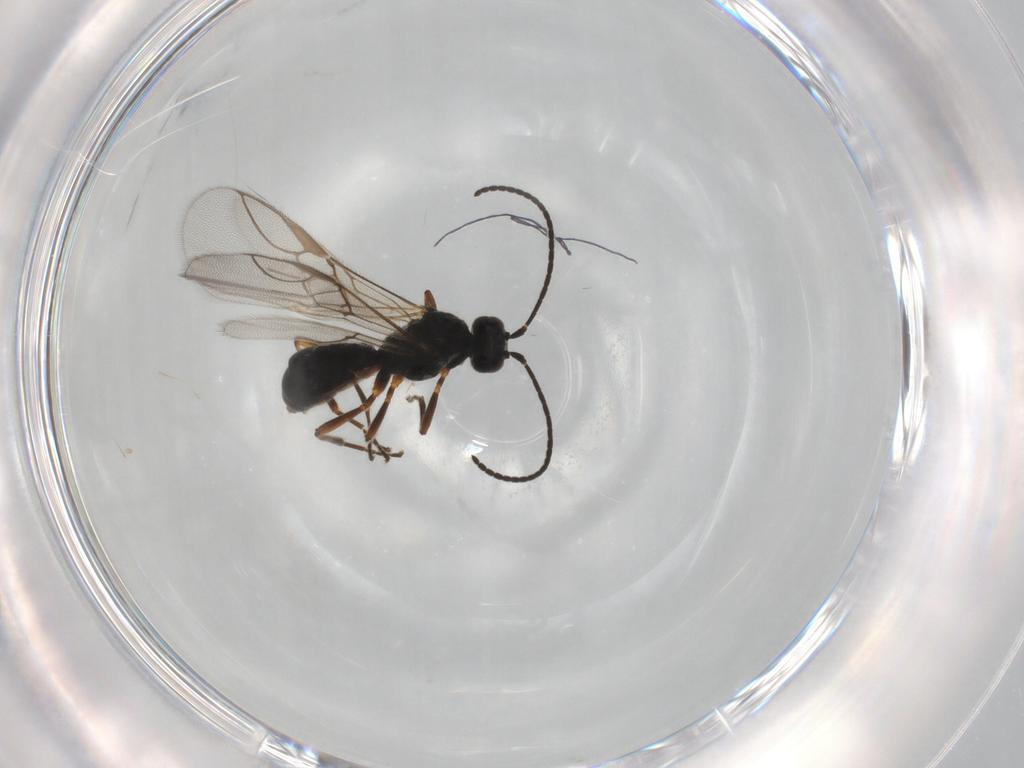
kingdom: Animalia
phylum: Arthropoda
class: Insecta
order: Hymenoptera
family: Braconidae
